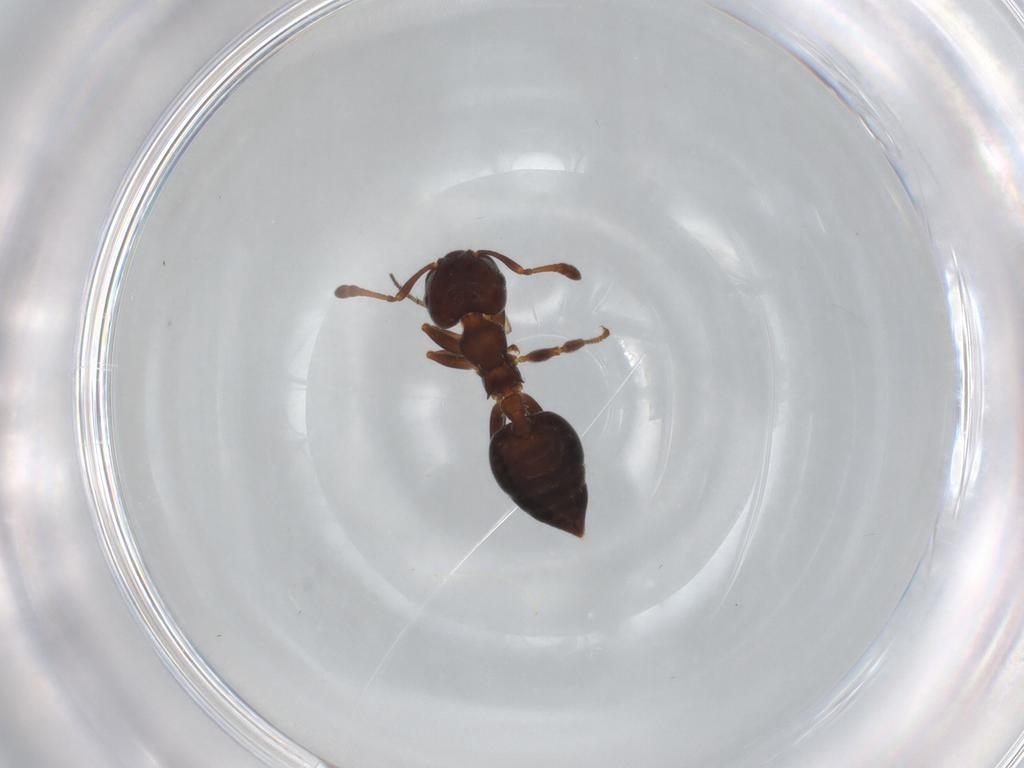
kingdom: Animalia
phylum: Arthropoda
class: Insecta
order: Hymenoptera
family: Formicidae
